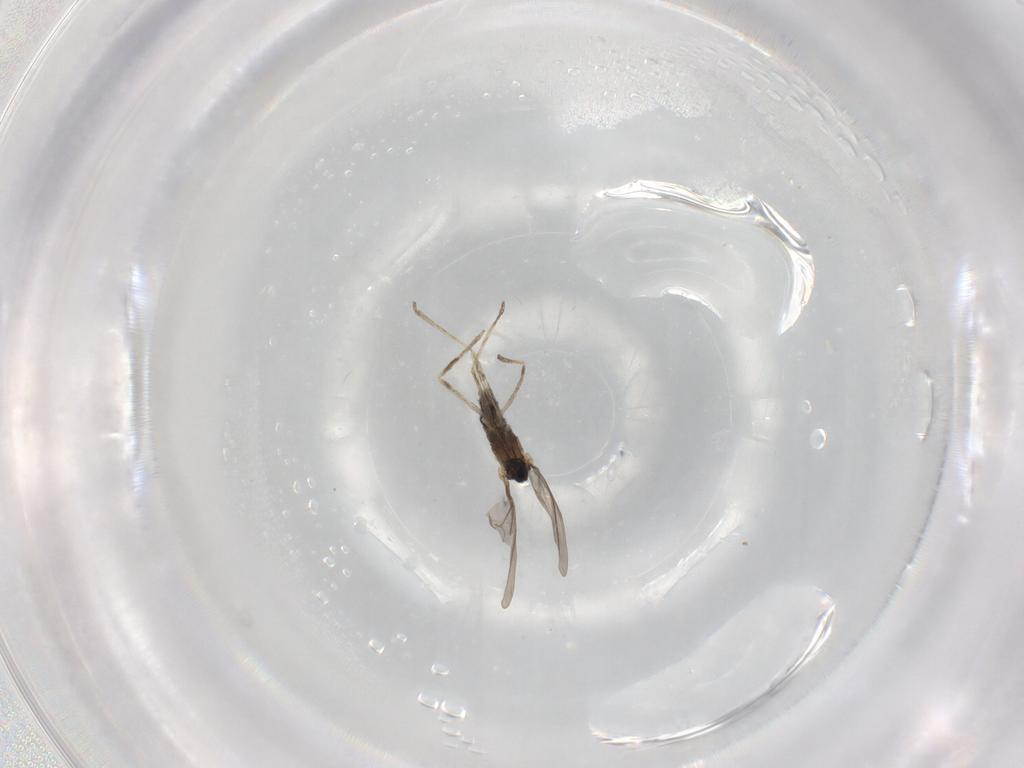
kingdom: Animalia
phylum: Arthropoda
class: Insecta
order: Diptera
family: Cecidomyiidae
